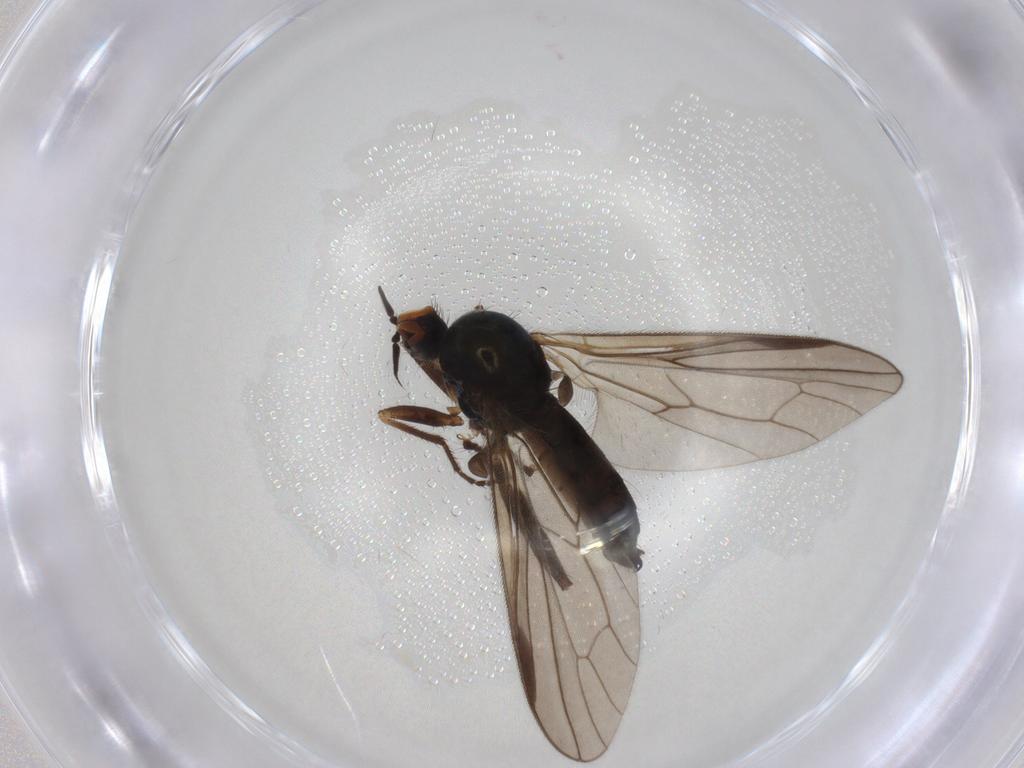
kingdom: Animalia
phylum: Arthropoda
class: Insecta
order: Diptera
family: Hybotidae
